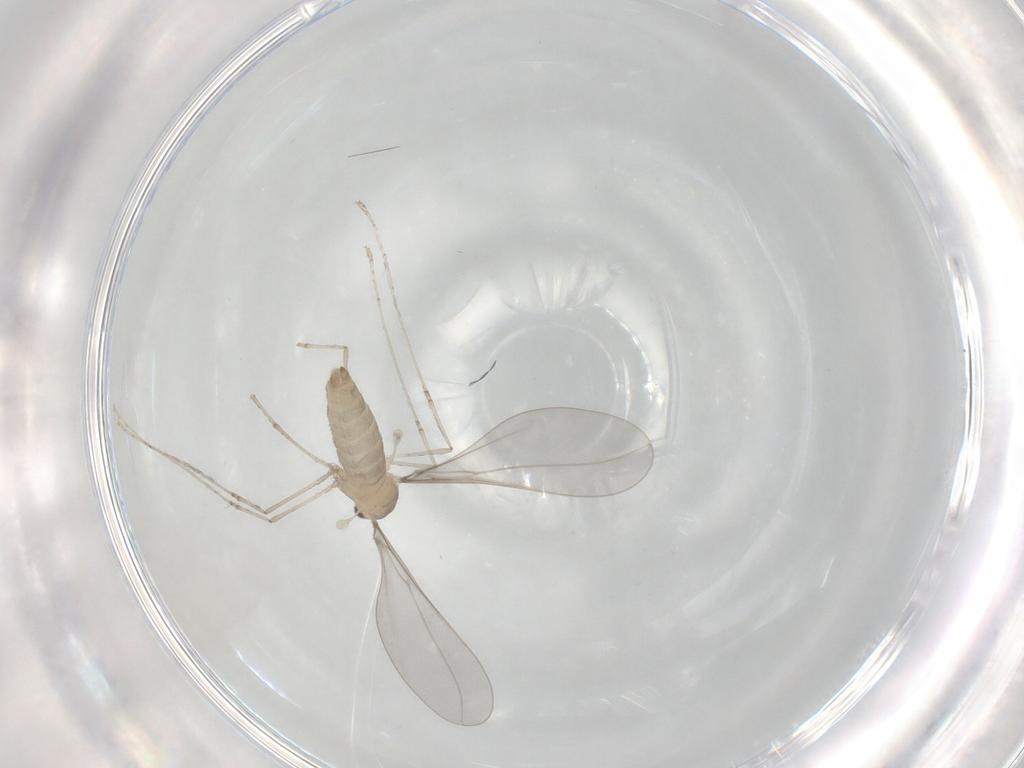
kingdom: Animalia
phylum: Arthropoda
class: Insecta
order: Diptera
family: Cecidomyiidae
